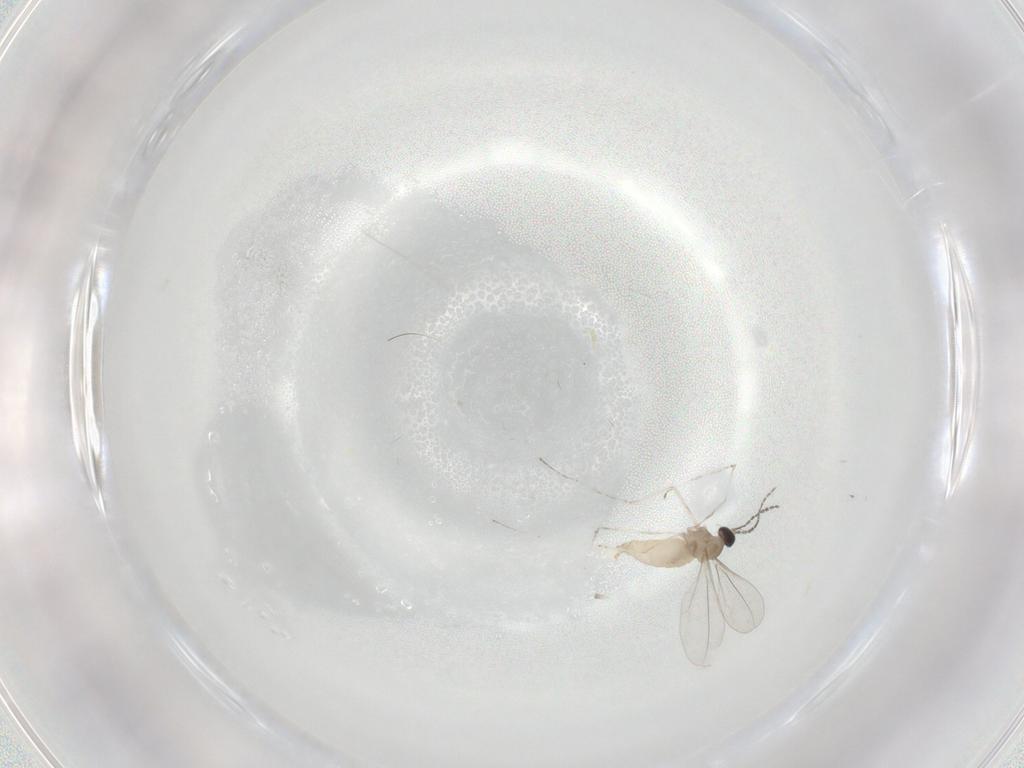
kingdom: Animalia
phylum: Arthropoda
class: Insecta
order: Diptera
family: Cecidomyiidae
